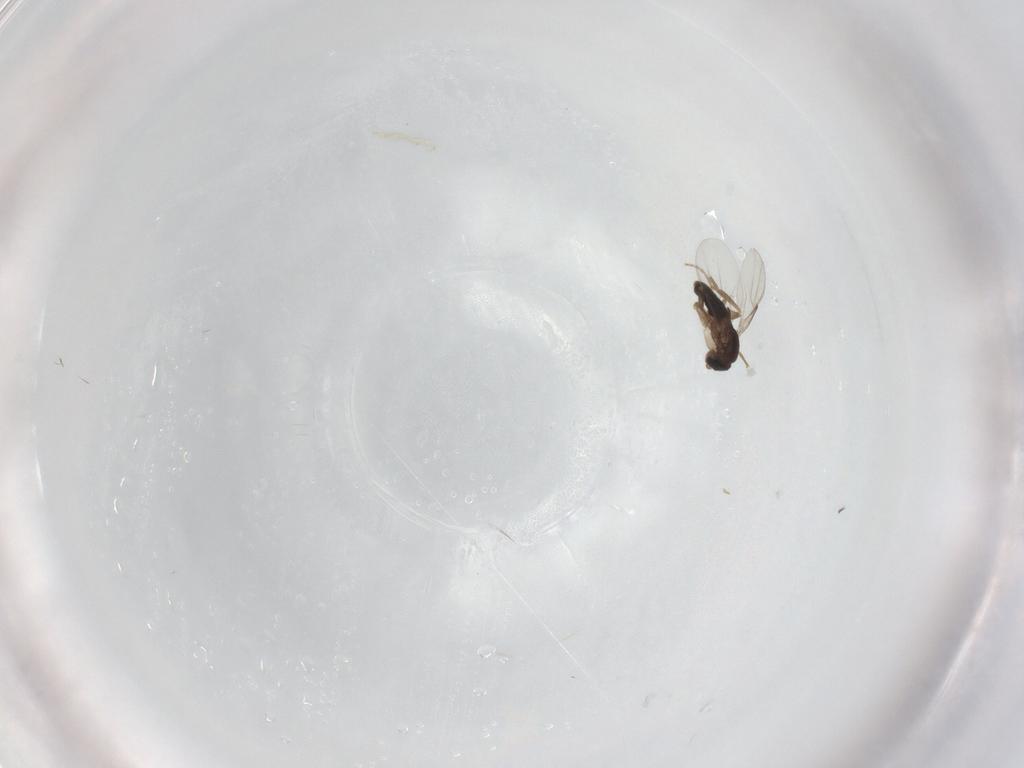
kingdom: Animalia
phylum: Arthropoda
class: Insecta
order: Diptera
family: Phoridae
